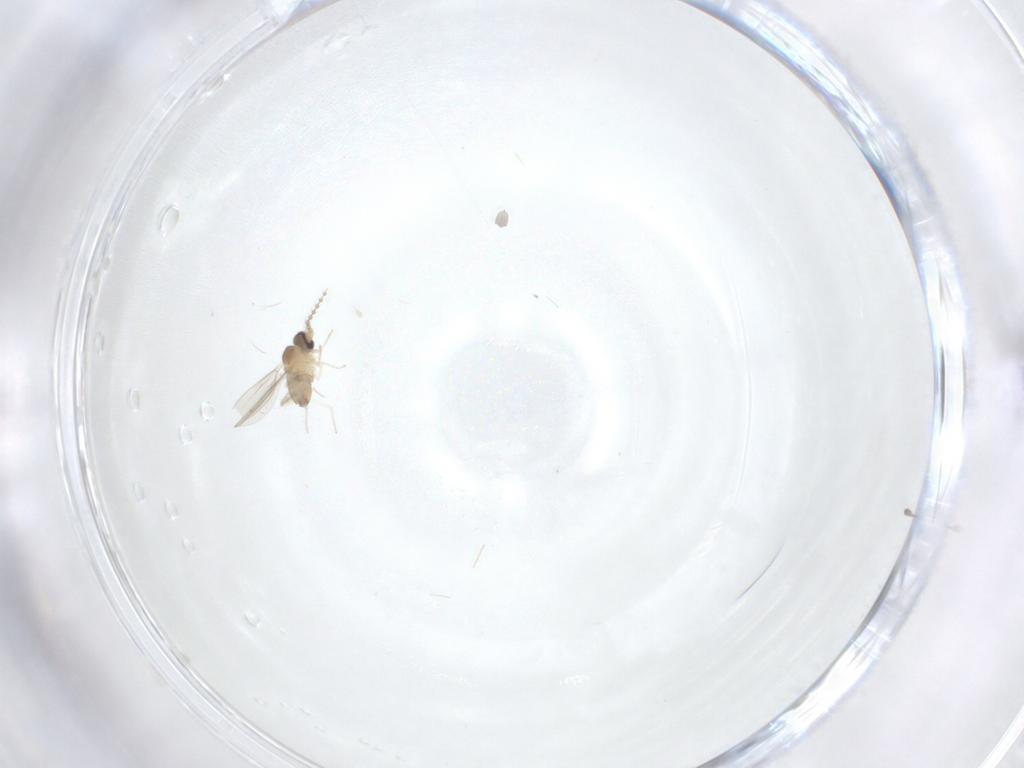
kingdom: Animalia
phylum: Arthropoda
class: Insecta
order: Diptera
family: Cecidomyiidae
